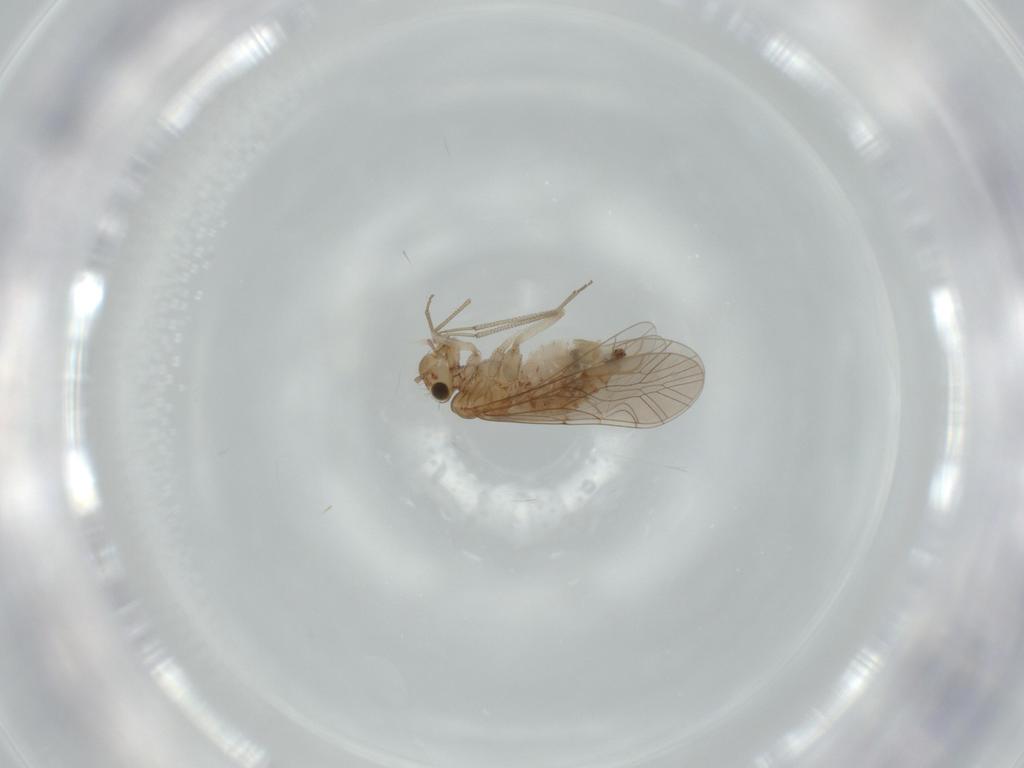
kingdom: Animalia
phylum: Arthropoda
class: Insecta
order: Psocodea
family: Lachesillidae
